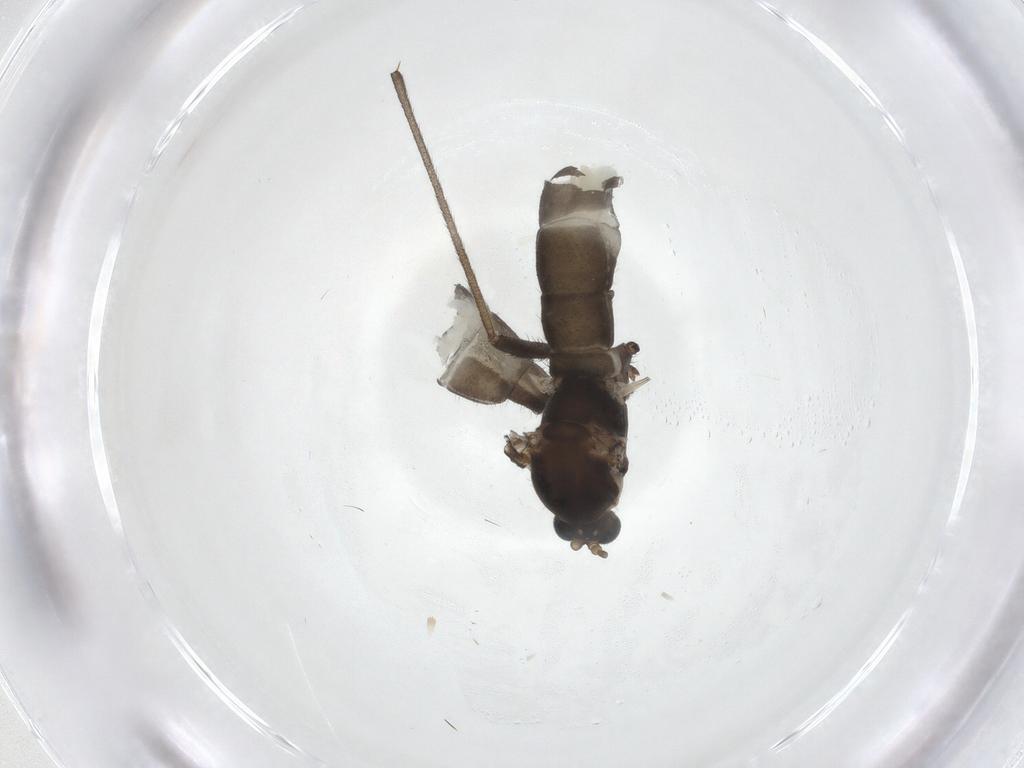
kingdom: Animalia
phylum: Arthropoda
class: Insecta
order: Diptera
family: Sciaridae
